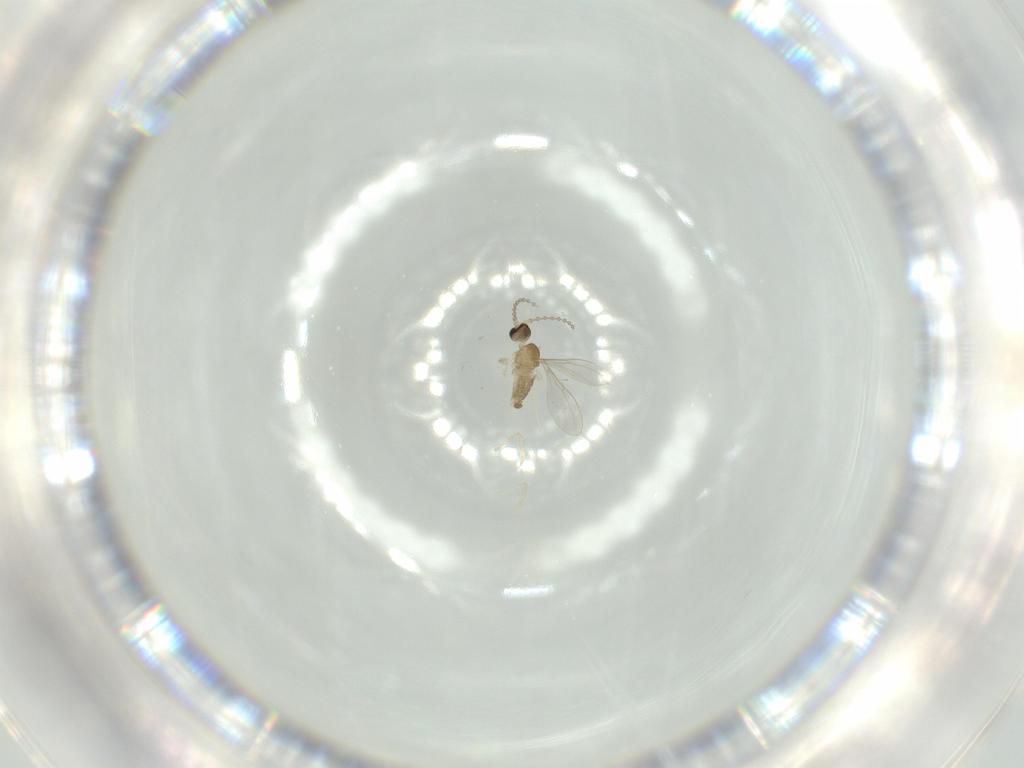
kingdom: Animalia
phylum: Arthropoda
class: Insecta
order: Diptera
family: Cecidomyiidae
